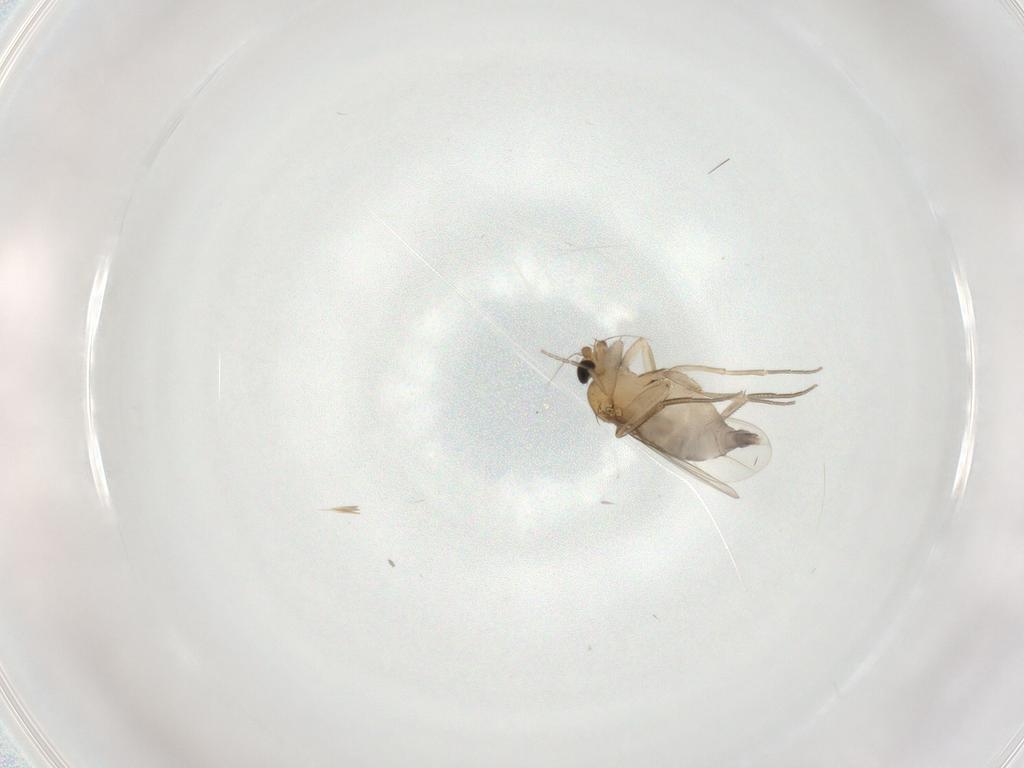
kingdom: Animalia
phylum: Arthropoda
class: Insecta
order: Diptera
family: Phoridae
